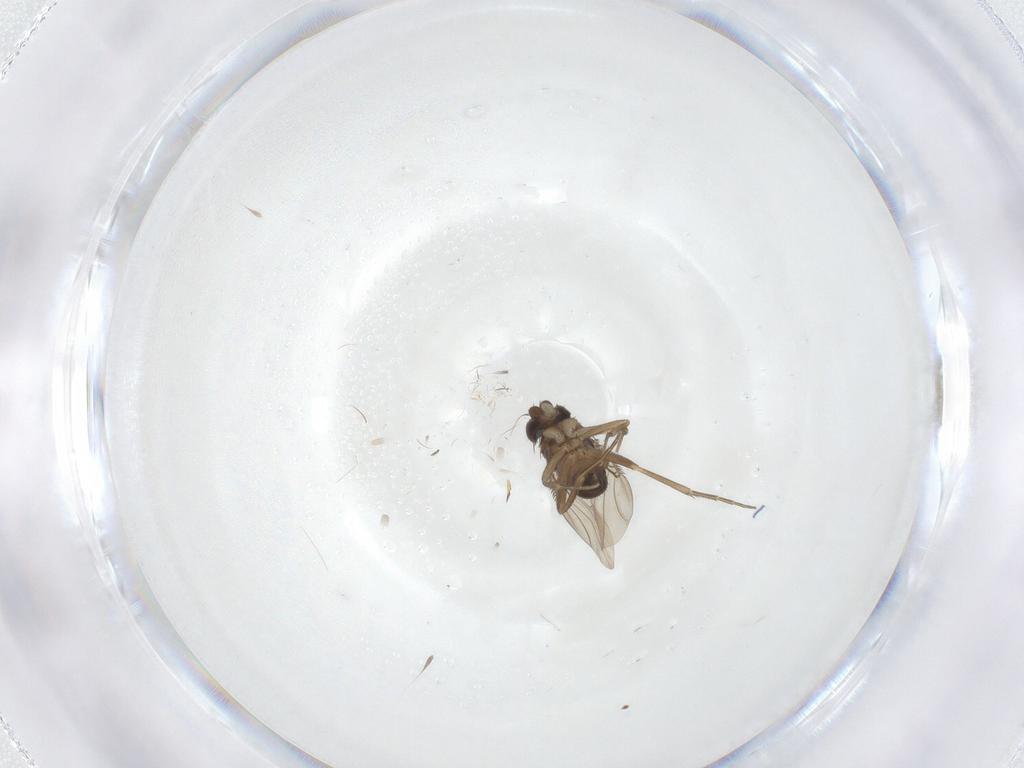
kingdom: Animalia
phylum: Arthropoda
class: Insecta
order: Diptera
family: Phoridae
